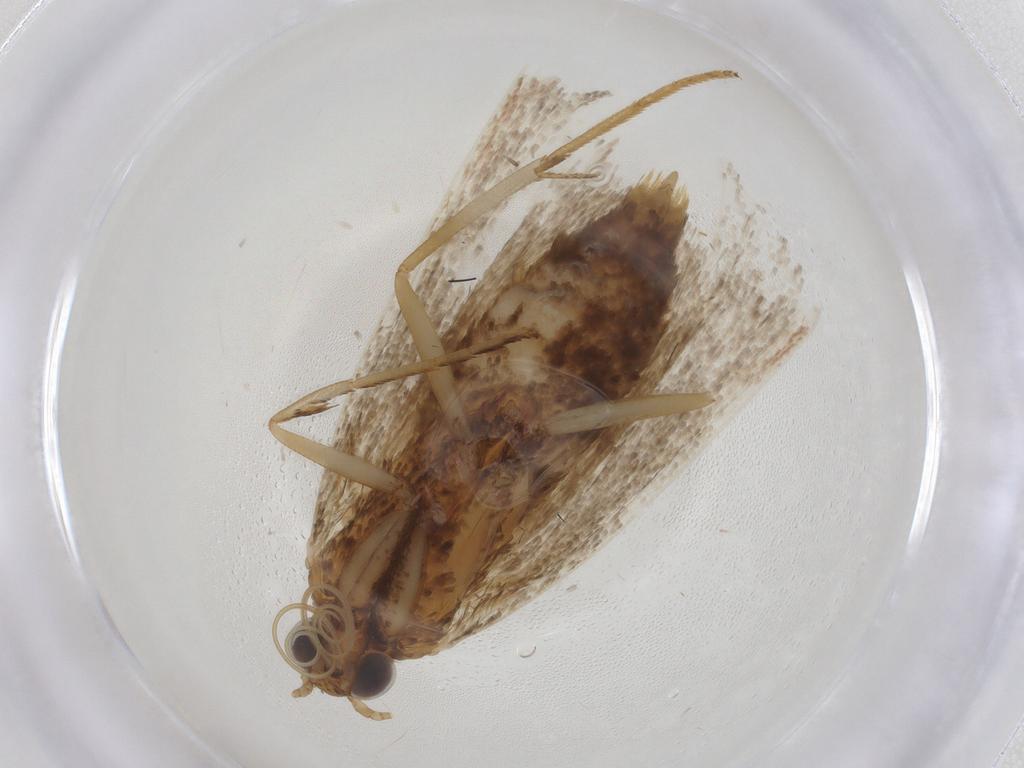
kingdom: Animalia
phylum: Arthropoda
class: Insecta
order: Lepidoptera
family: Pyralidae
